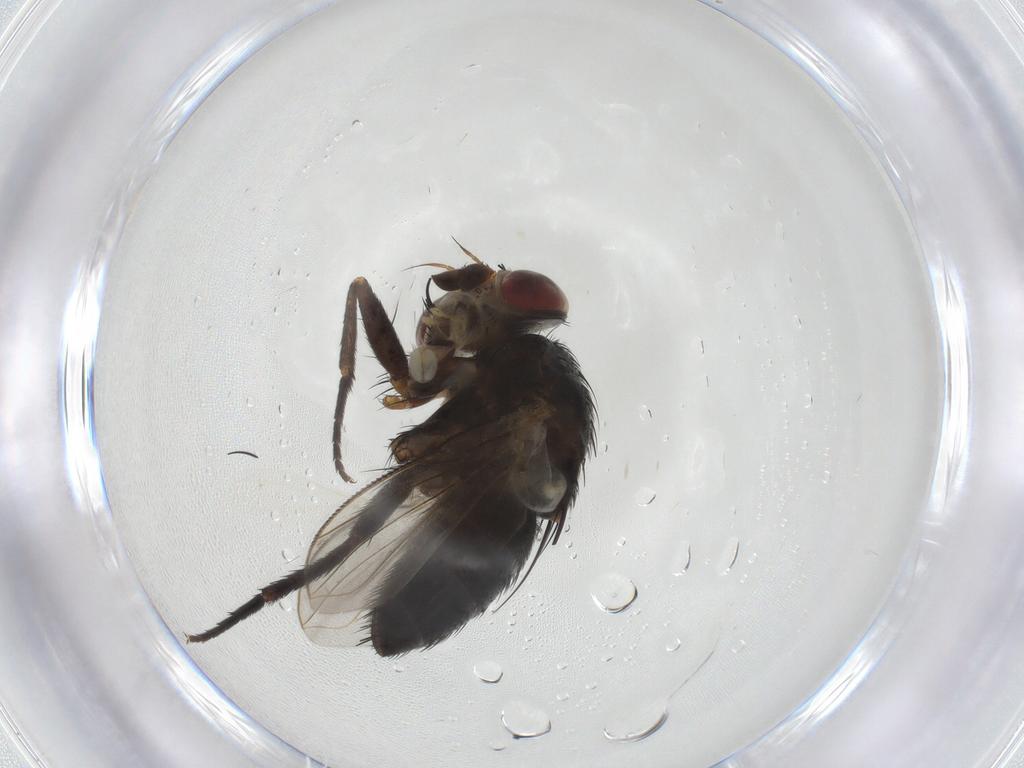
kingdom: Animalia
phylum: Arthropoda
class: Insecta
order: Diptera
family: Tachinidae
